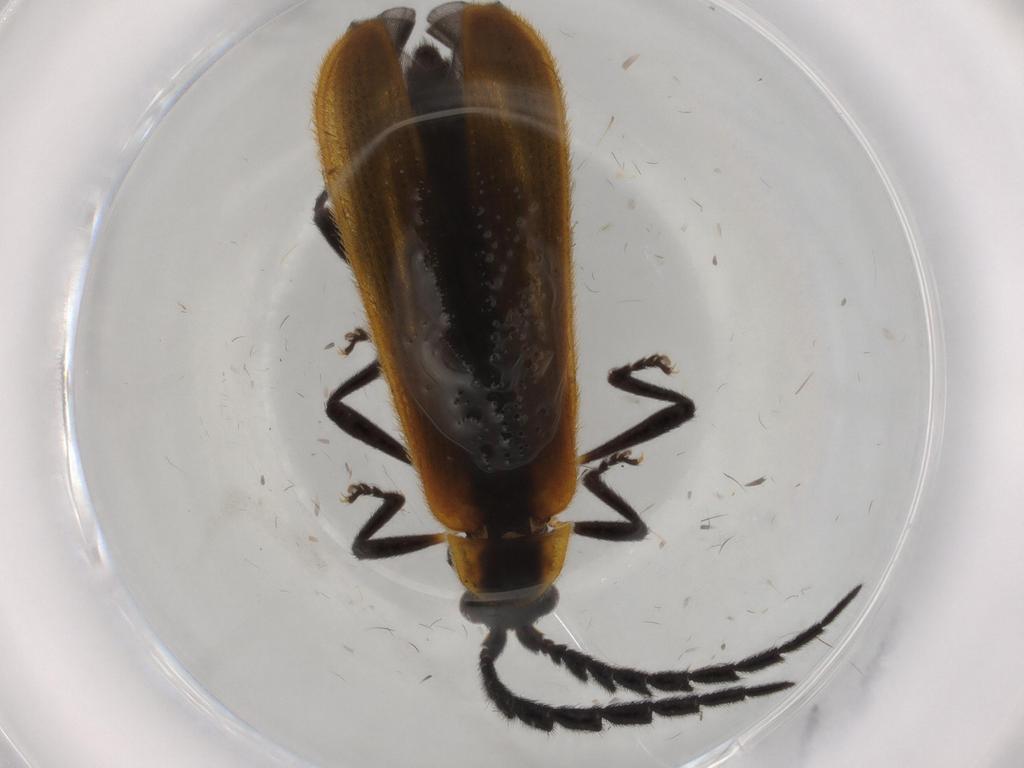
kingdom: Animalia
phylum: Arthropoda
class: Insecta
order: Coleoptera
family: Lycidae
